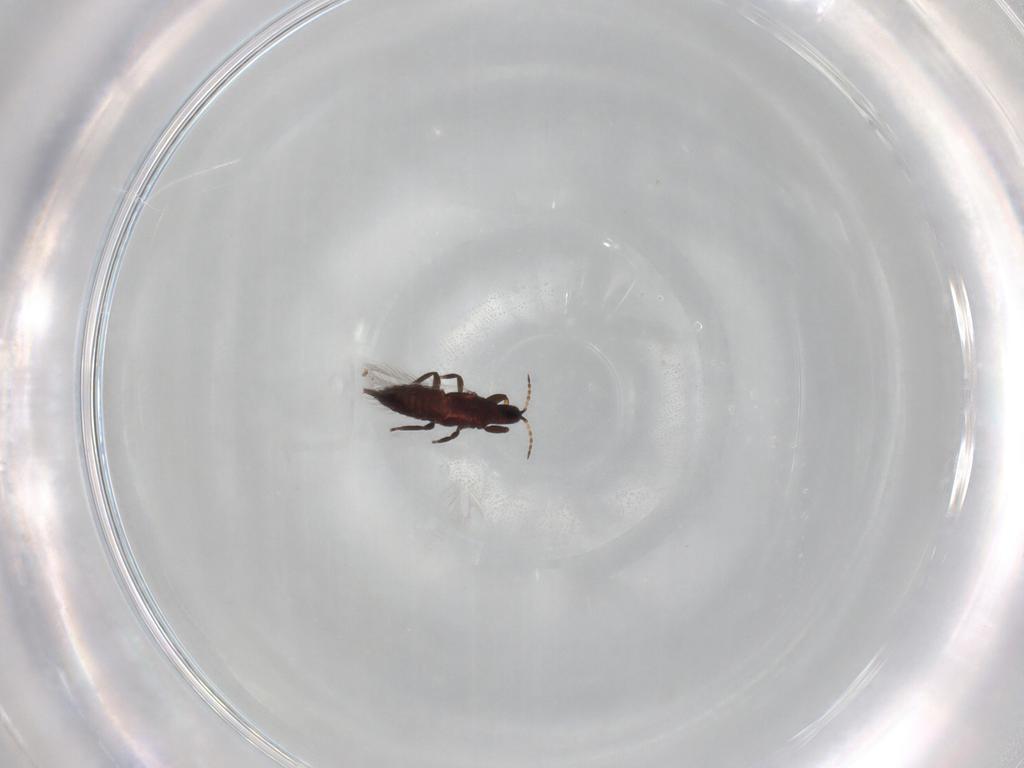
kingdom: Animalia
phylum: Arthropoda
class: Insecta
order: Thysanoptera
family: Phlaeothripidae
